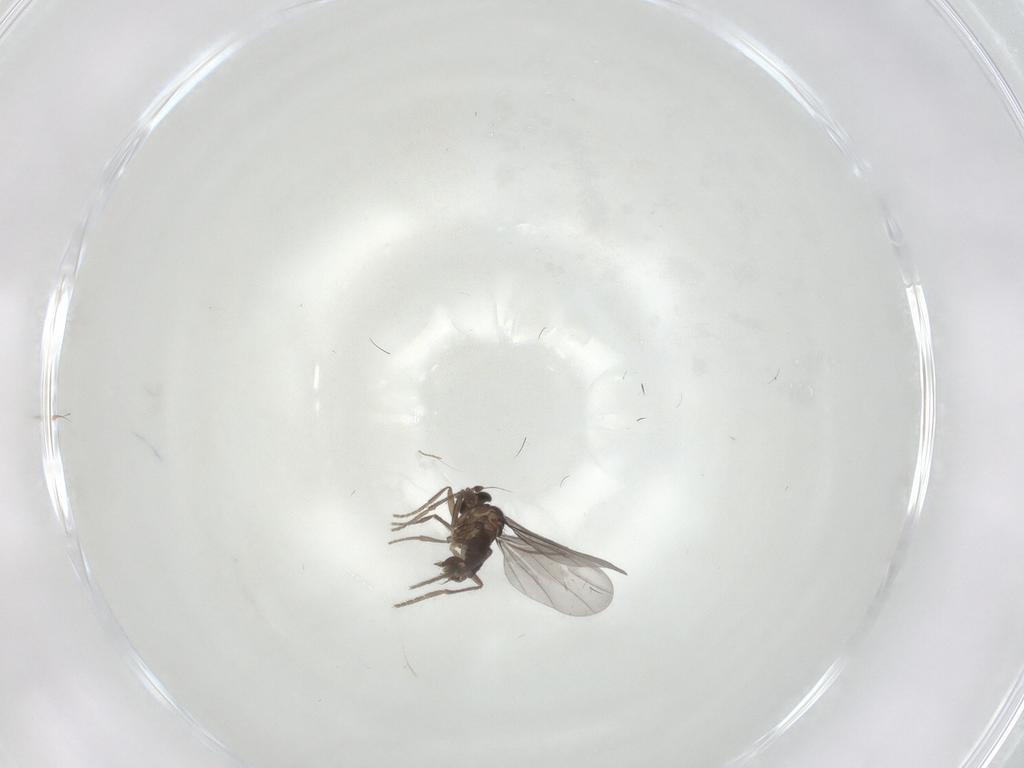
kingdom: Animalia
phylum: Arthropoda
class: Insecta
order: Diptera
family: Phoridae
